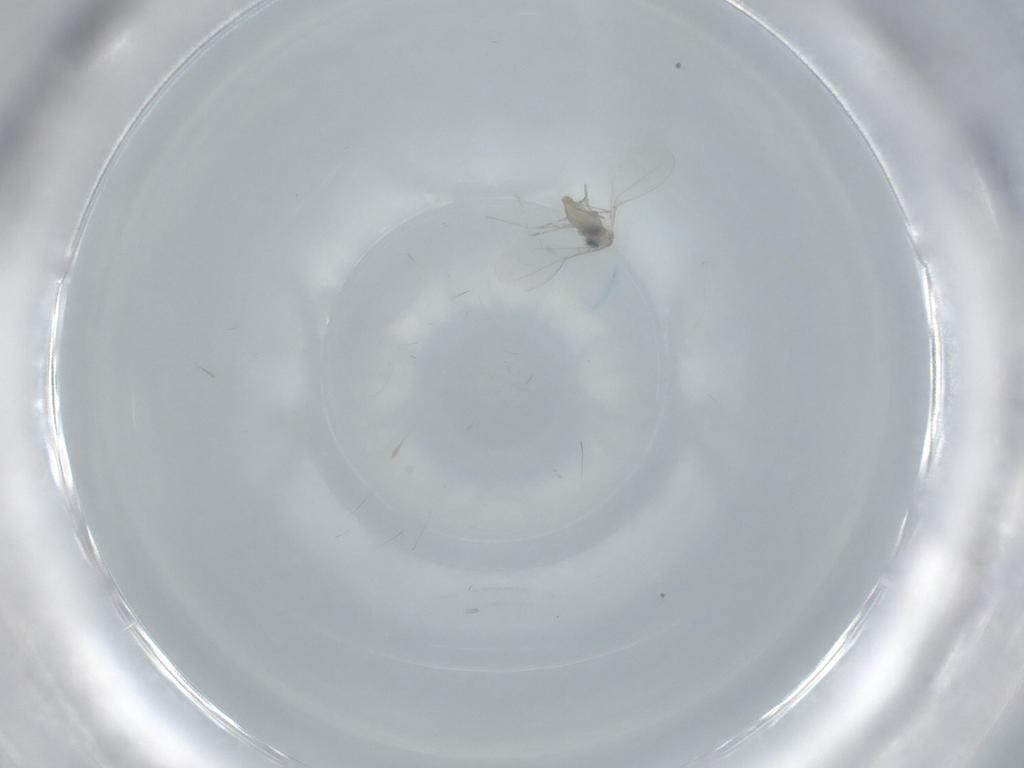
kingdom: Animalia
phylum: Arthropoda
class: Insecta
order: Diptera
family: Cecidomyiidae
